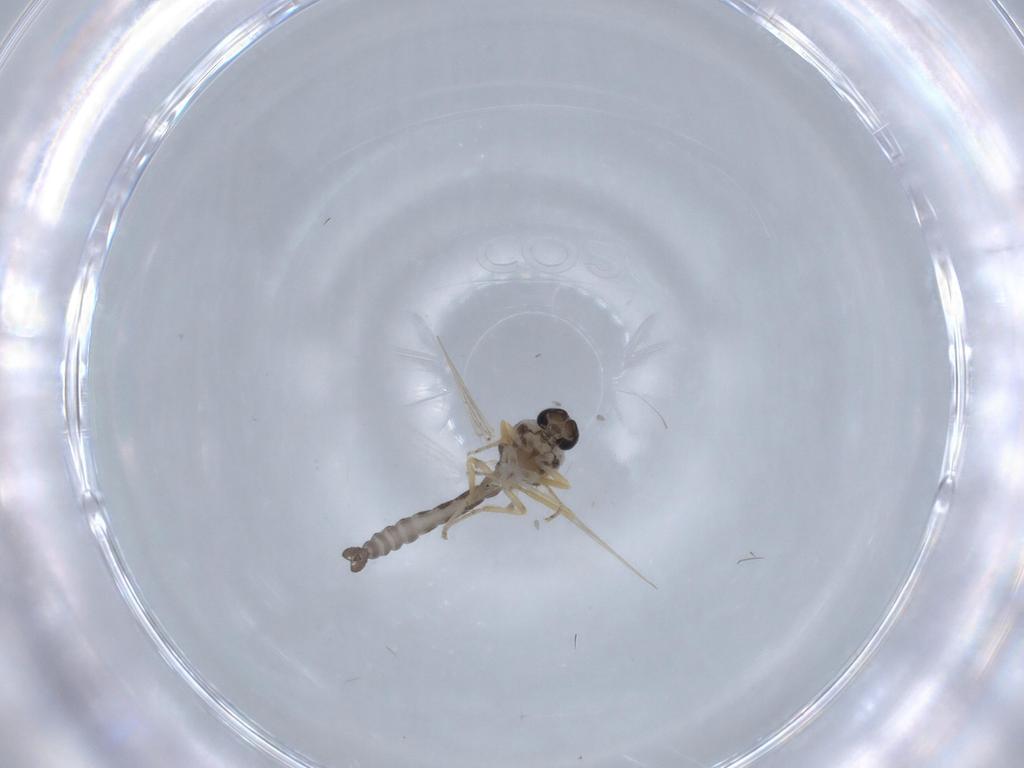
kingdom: Animalia
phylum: Arthropoda
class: Insecta
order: Diptera
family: Ceratopogonidae
